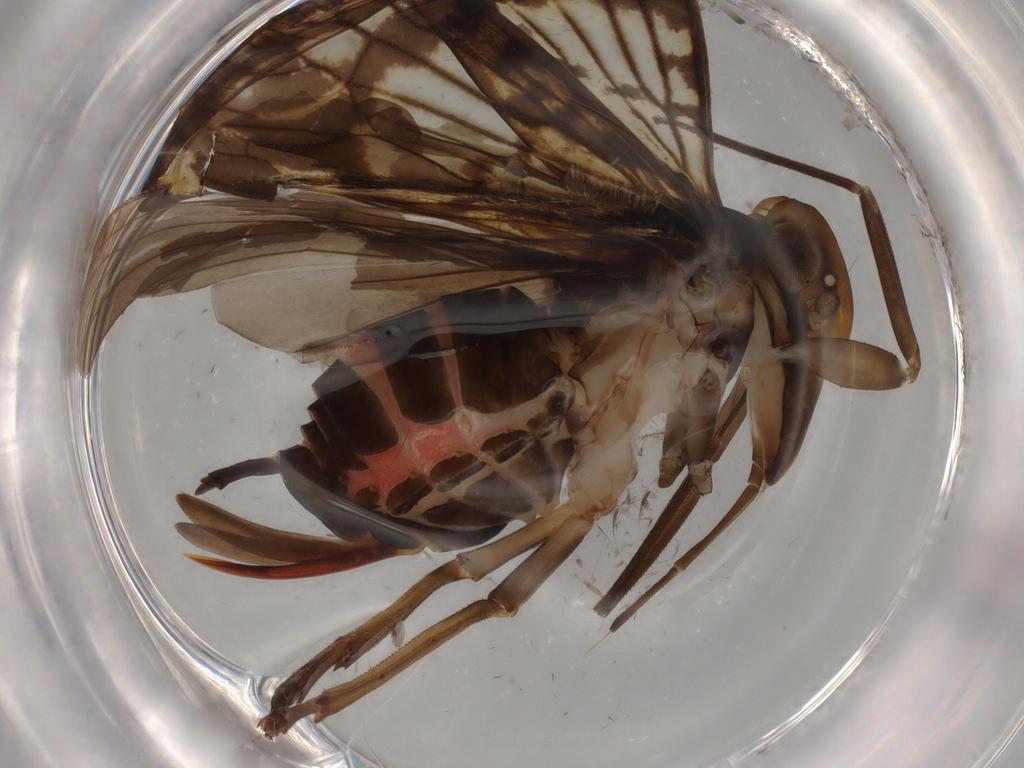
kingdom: Animalia
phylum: Arthropoda
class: Insecta
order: Hemiptera
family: Cixiidae
